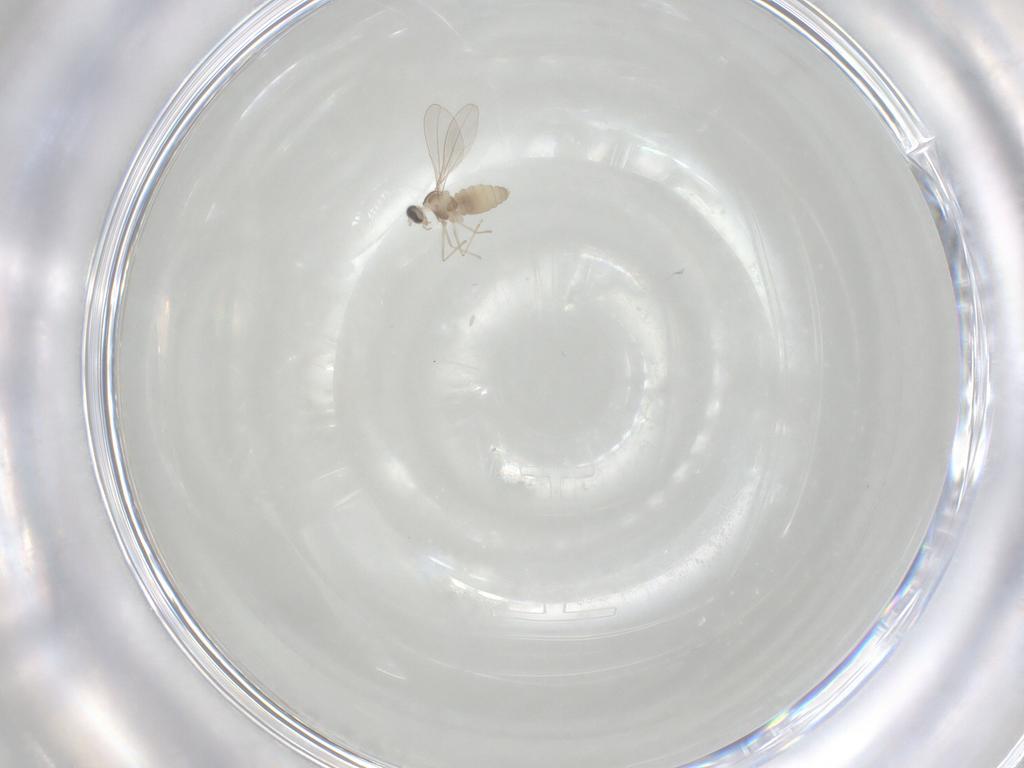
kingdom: Animalia
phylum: Arthropoda
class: Insecta
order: Diptera
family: Cecidomyiidae
